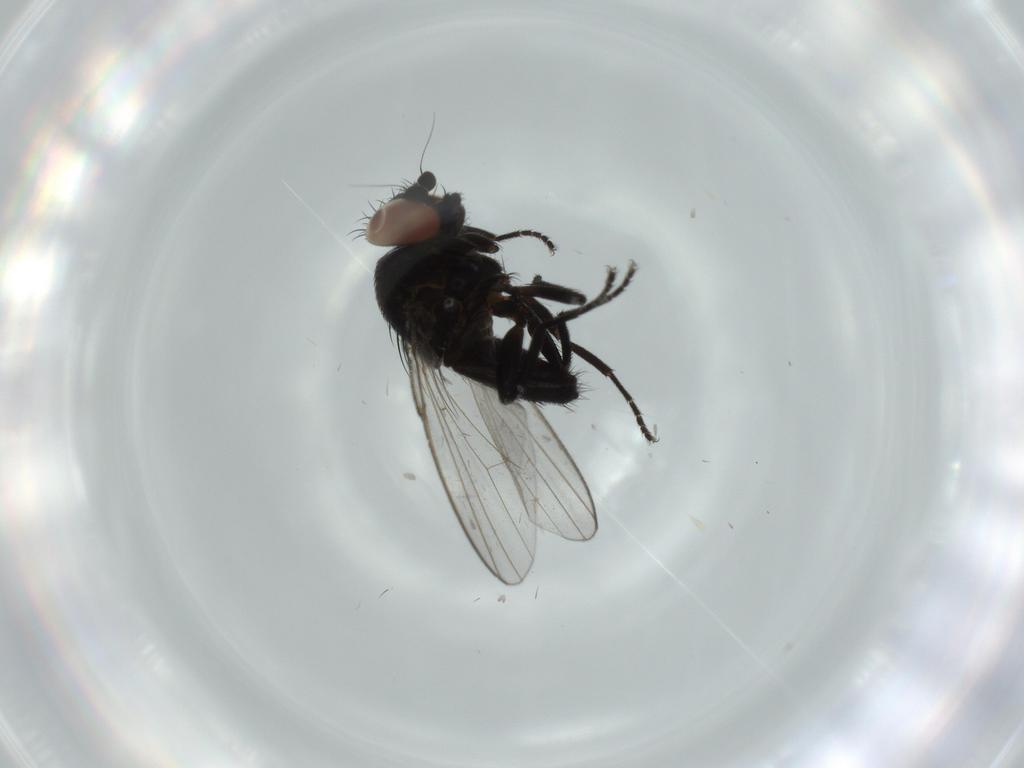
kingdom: Animalia
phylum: Arthropoda
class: Insecta
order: Diptera
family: Milichiidae
